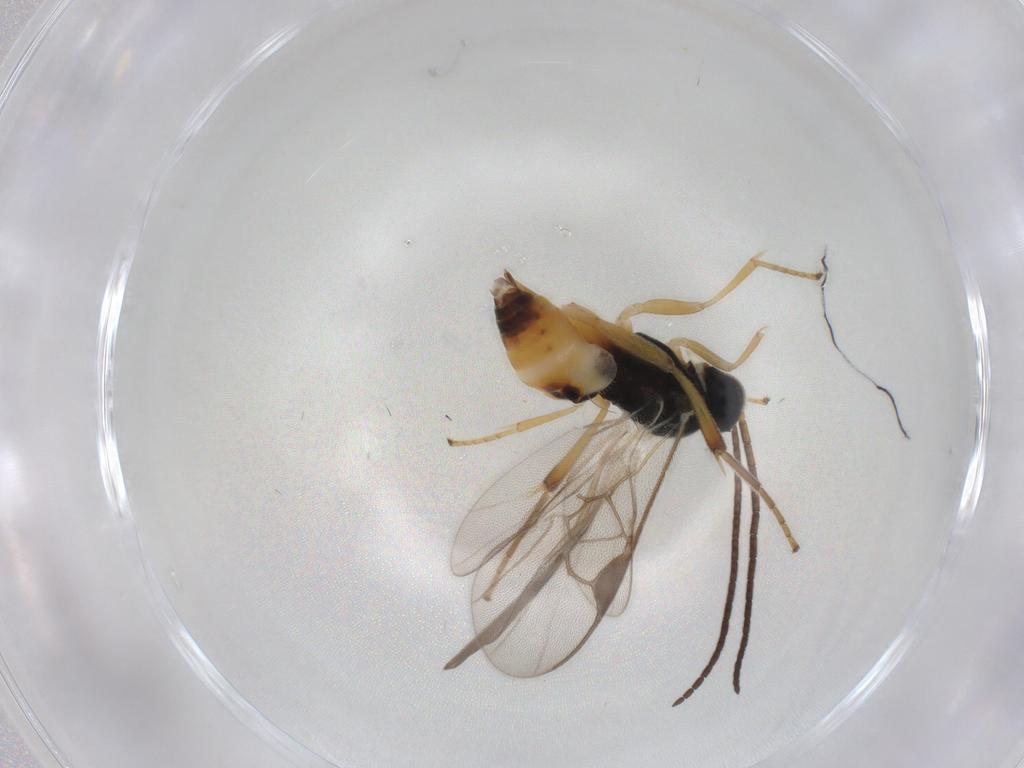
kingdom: Animalia
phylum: Arthropoda
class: Insecta
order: Hymenoptera
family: Braconidae
